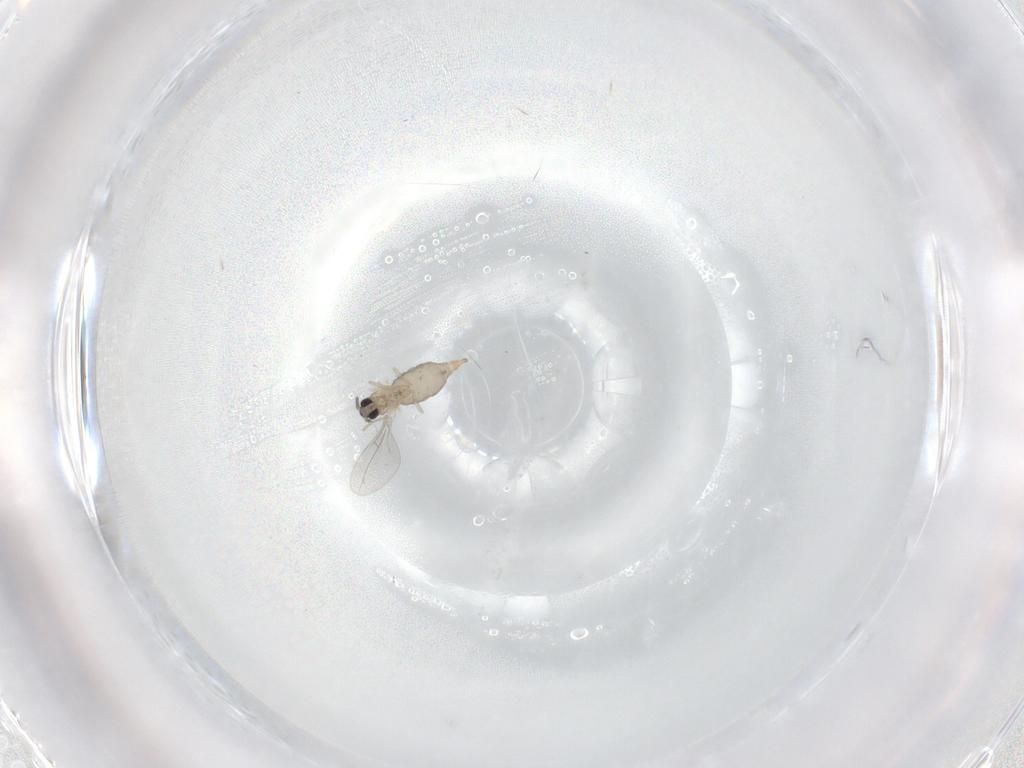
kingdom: Animalia
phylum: Arthropoda
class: Insecta
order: Diptera
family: Cecidomyiidae
